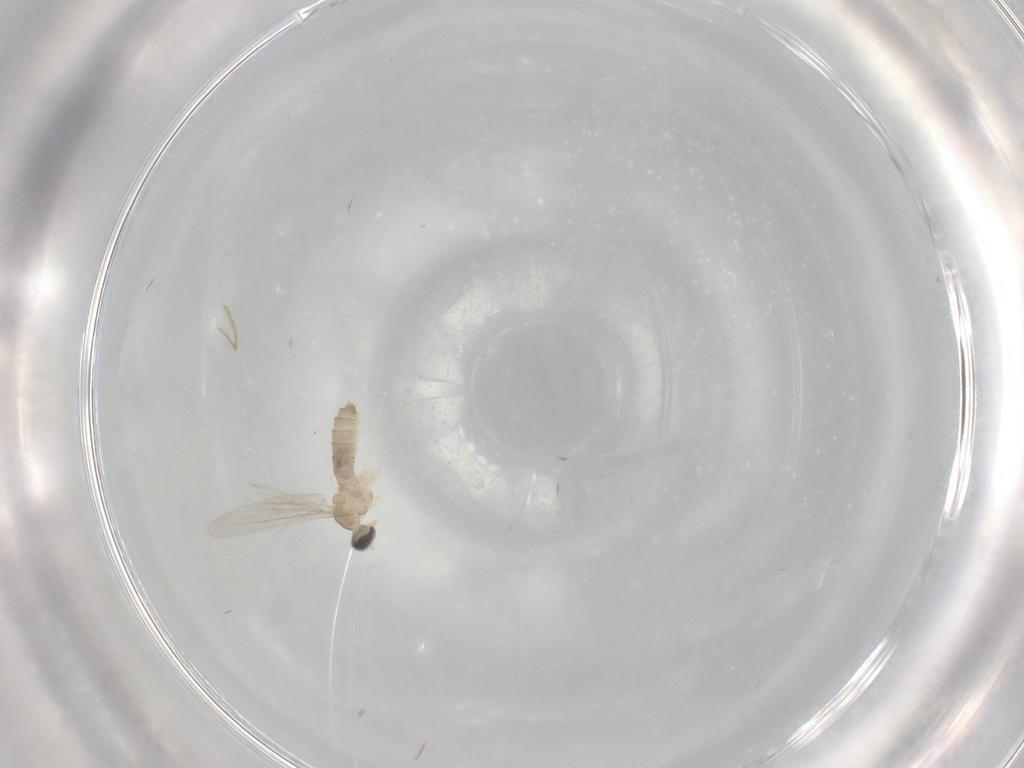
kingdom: Animalia
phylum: Arthropoda
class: Insecta
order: Diptera
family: Cecidomyiidae
